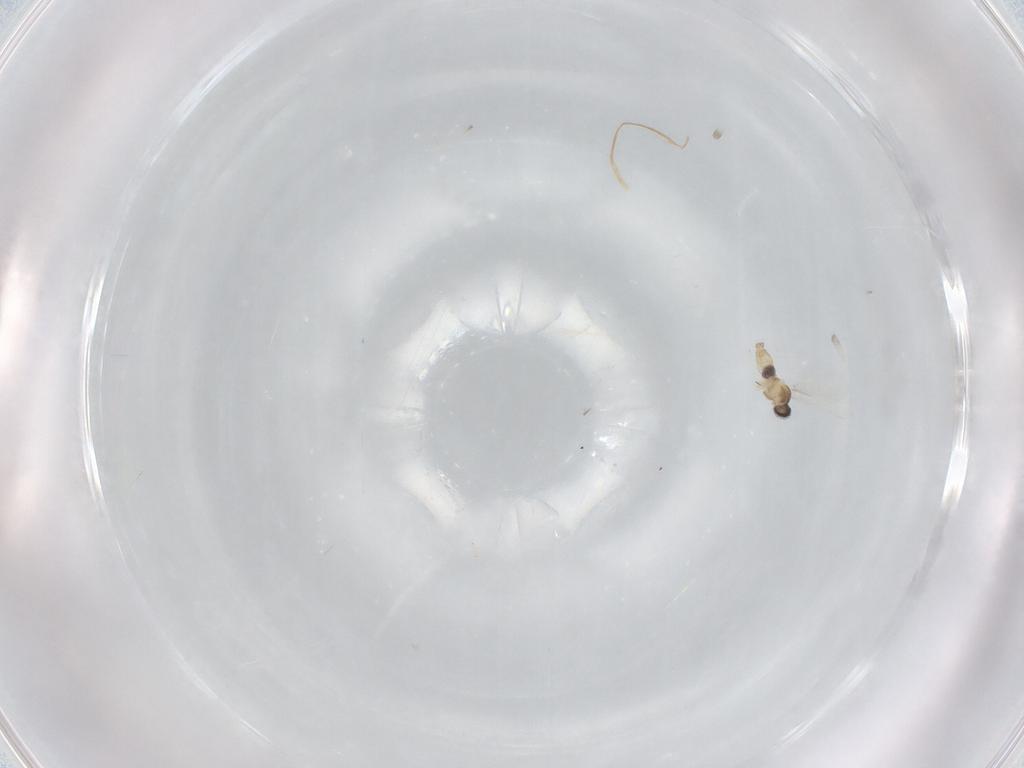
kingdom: Animalia
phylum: Arthropoda
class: Insecta
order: Diptera
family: Cecidomyiidae
